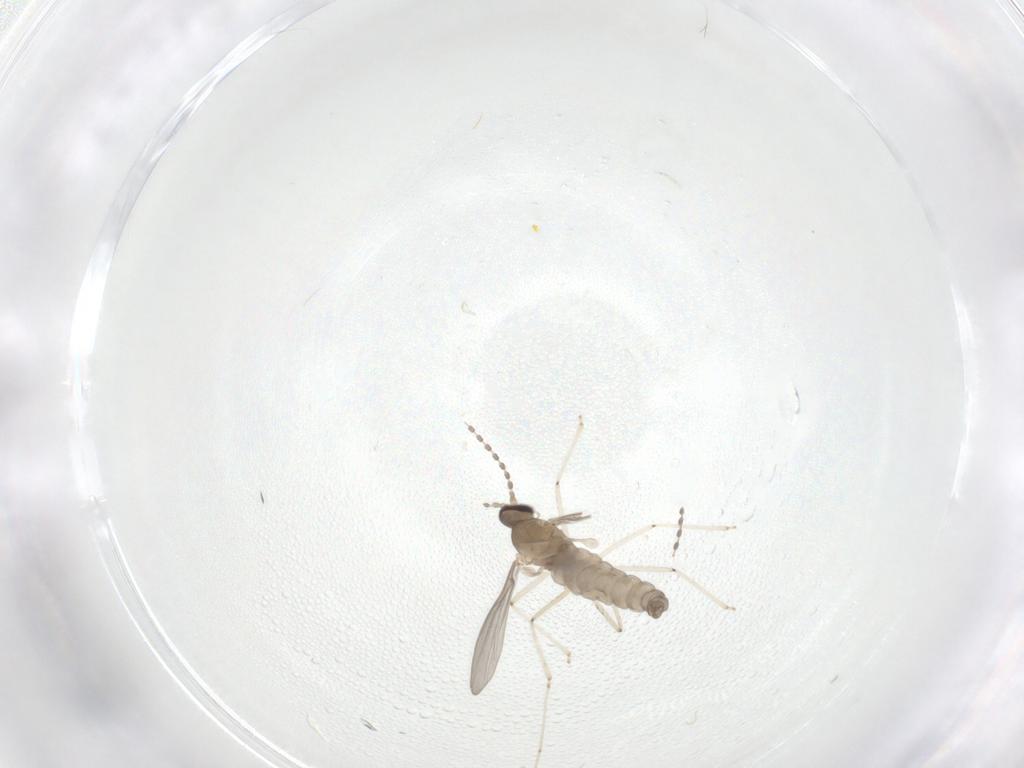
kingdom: Animalia
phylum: Arthropoda
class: Insecta
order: Diptera
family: Cecidomyiidae
